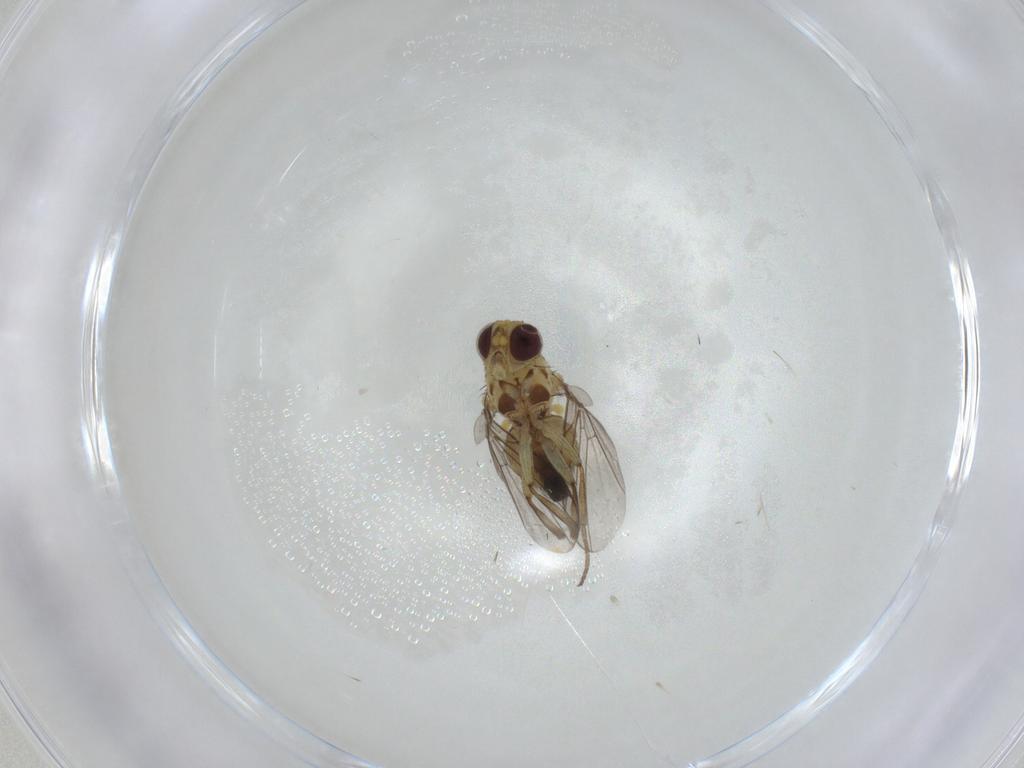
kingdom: Animalia
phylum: Arthropoda
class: Insecta
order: Diptera
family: Agromyzidae
